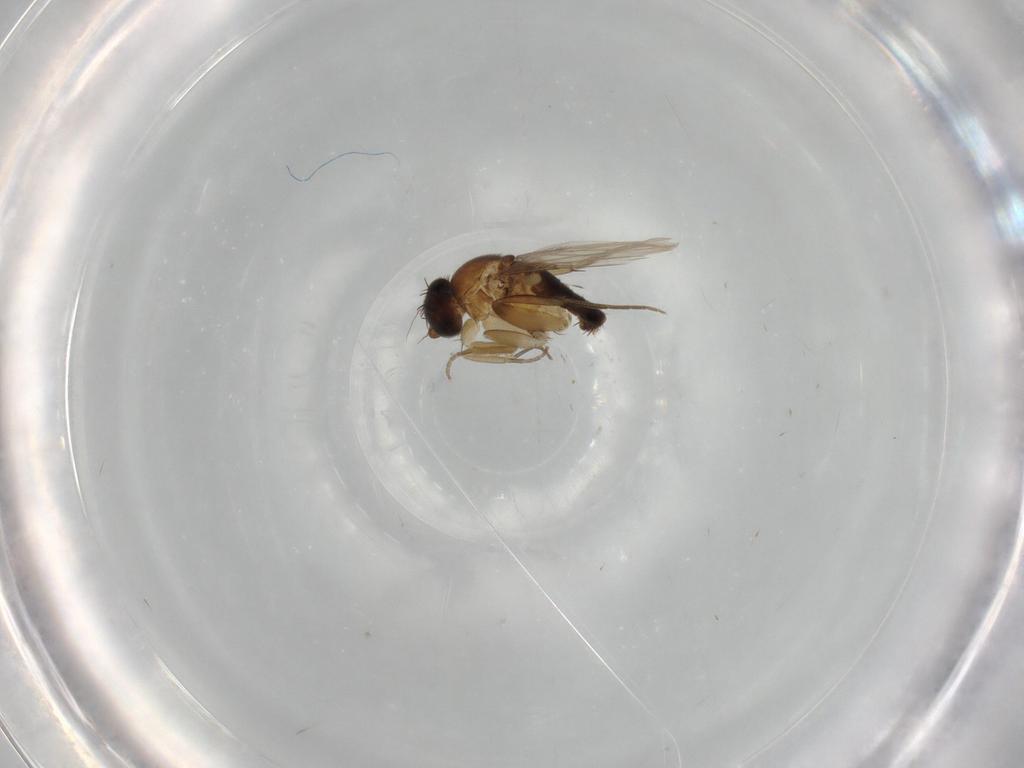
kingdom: Animalia
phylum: Arthropoda
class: Insecta
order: Diptera
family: Phoridae
